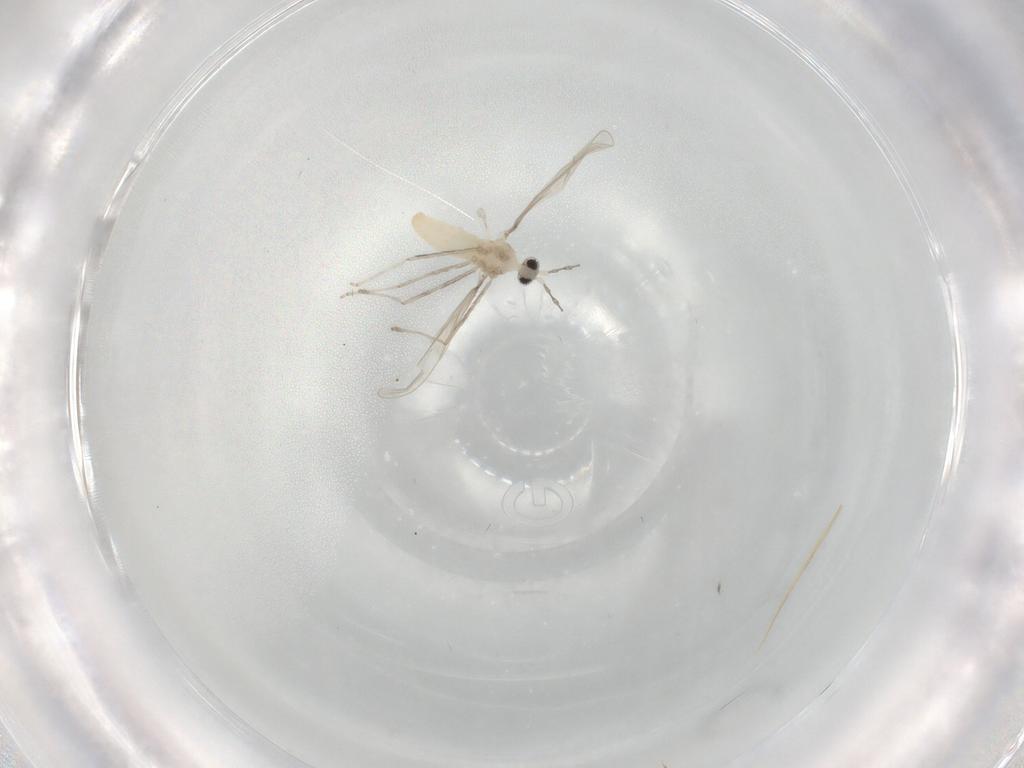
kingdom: Animalia
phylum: Arthropoda
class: Insecta
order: Diptera
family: Cecidomyiidae
